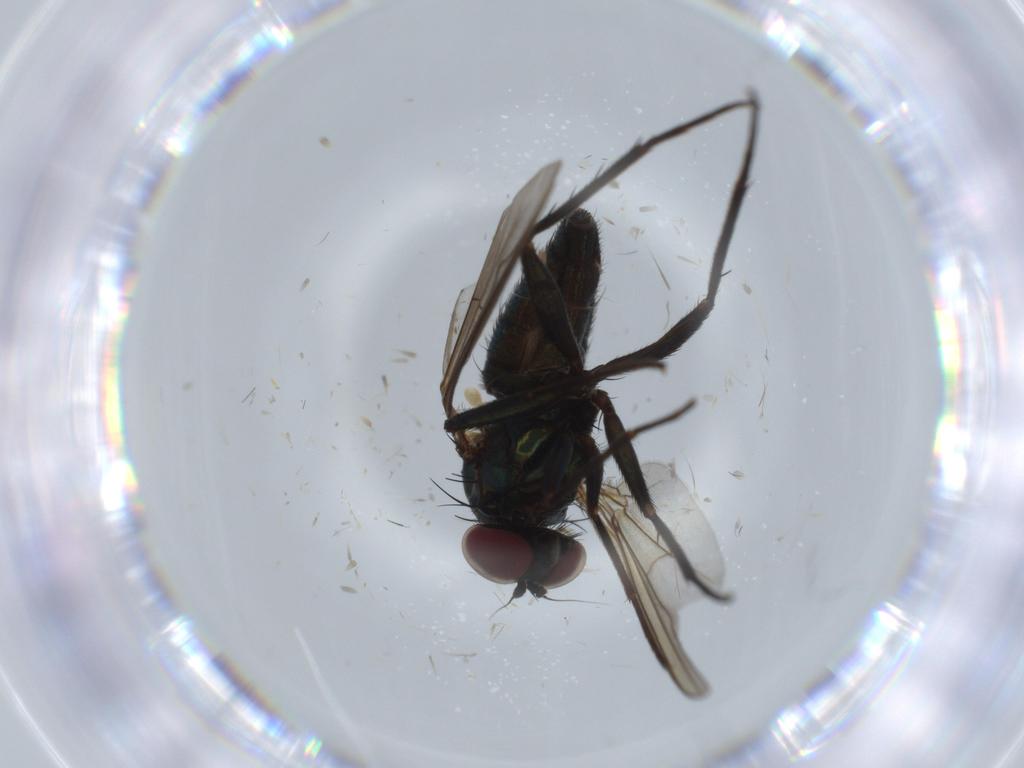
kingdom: Animalia
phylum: Arthropoda
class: Insecta
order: Diptera
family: Dolichopodidae
